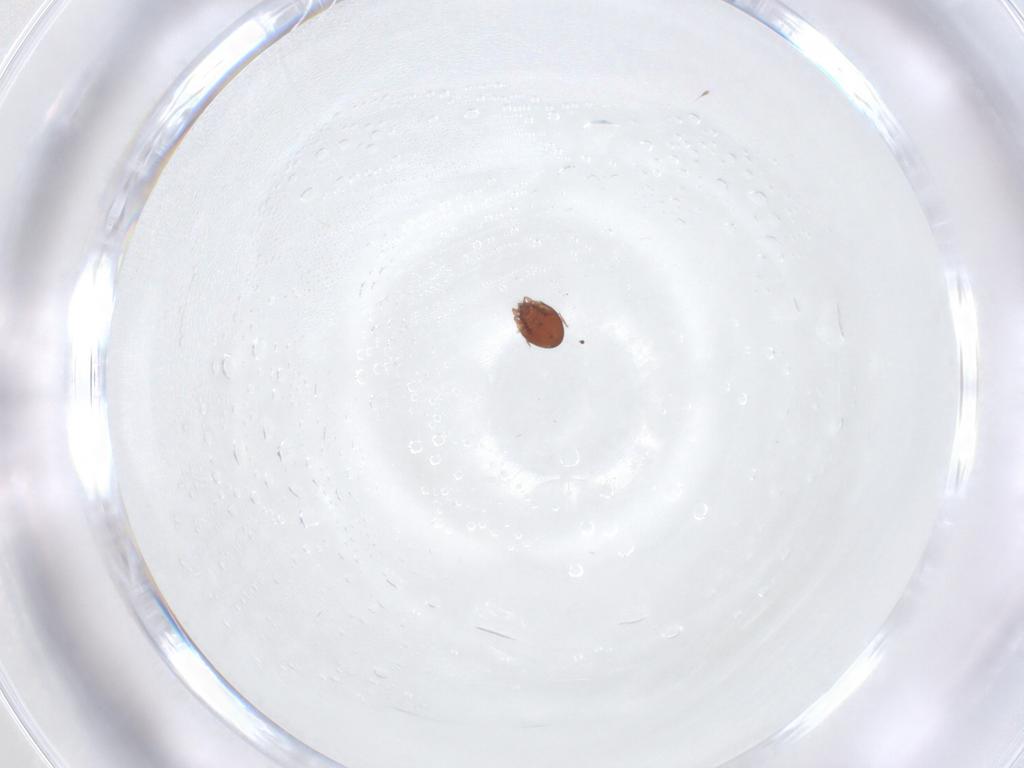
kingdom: Animalia
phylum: Arthropoda
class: Arachnida
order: Sarcoptiformes
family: Scheloribatidae
